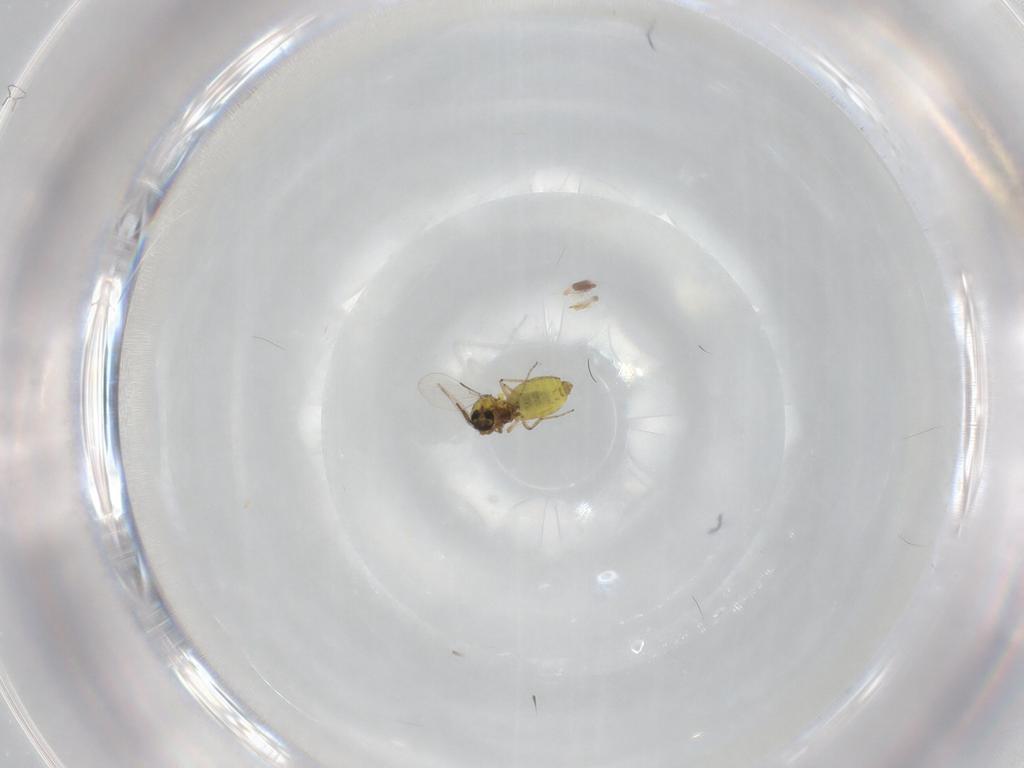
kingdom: Animalia
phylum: Arthropoda
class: Insecta
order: Diptera
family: Ceratopogonidae
